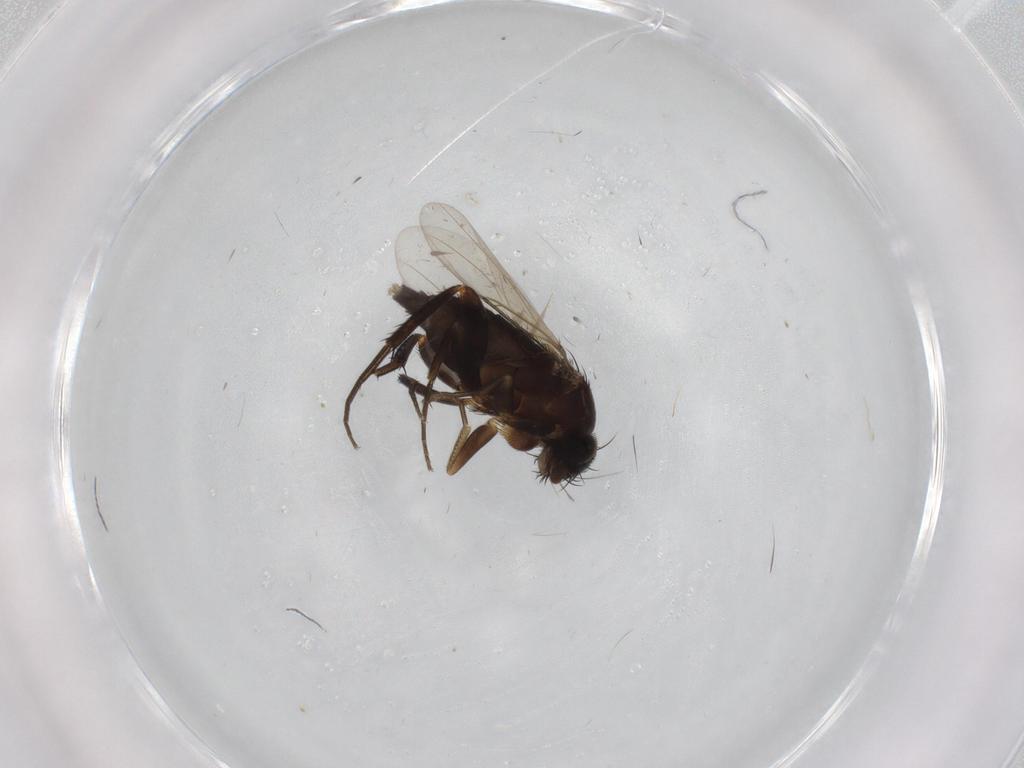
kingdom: Animalia
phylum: Arthropoda
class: Insecta
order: Diptera
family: Phoridae
